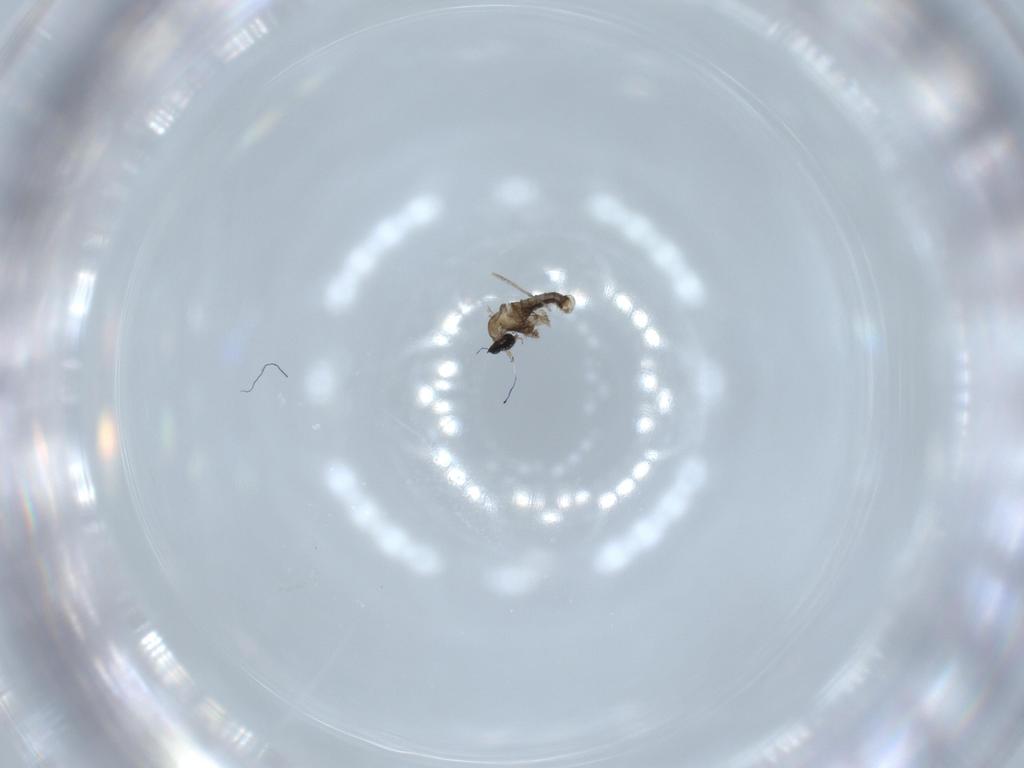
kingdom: Animalia
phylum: Arthropoda
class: Insecta
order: Diptera
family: Cecidomyiidae
